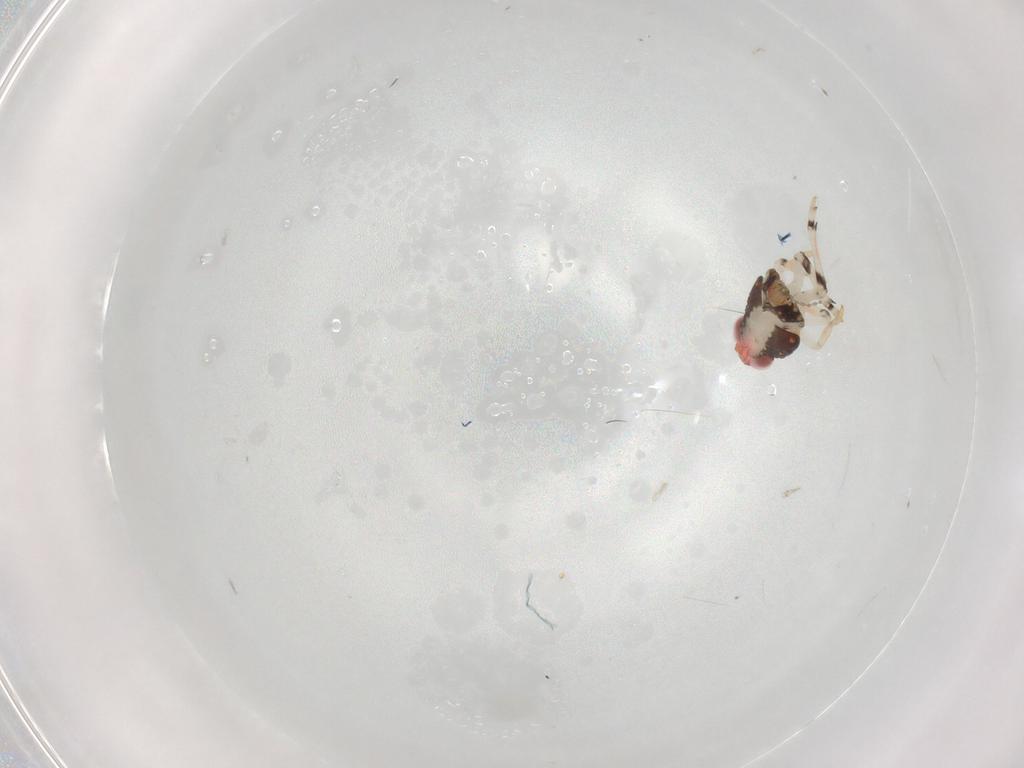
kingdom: Animalia
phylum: Arthropoda
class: Insecta
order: Hemiptera
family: Fulgoroidea_incertae_sedis
